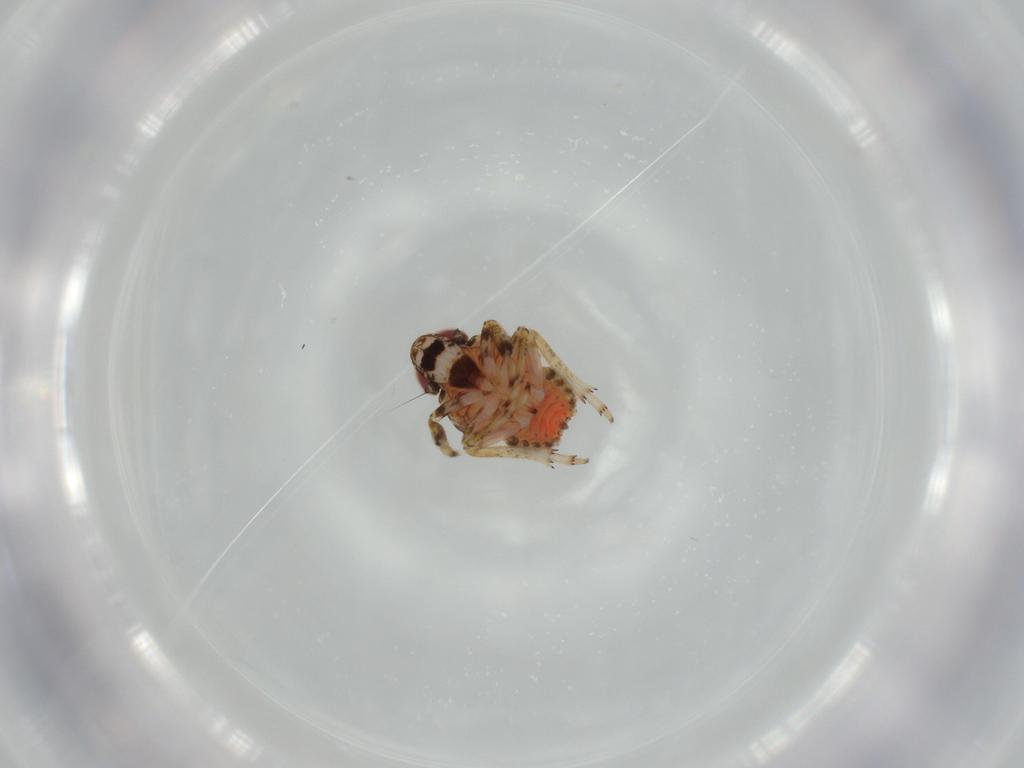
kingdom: Animalia
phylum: Arthropoda
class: Insecta
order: Hemiptera
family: Issidae
